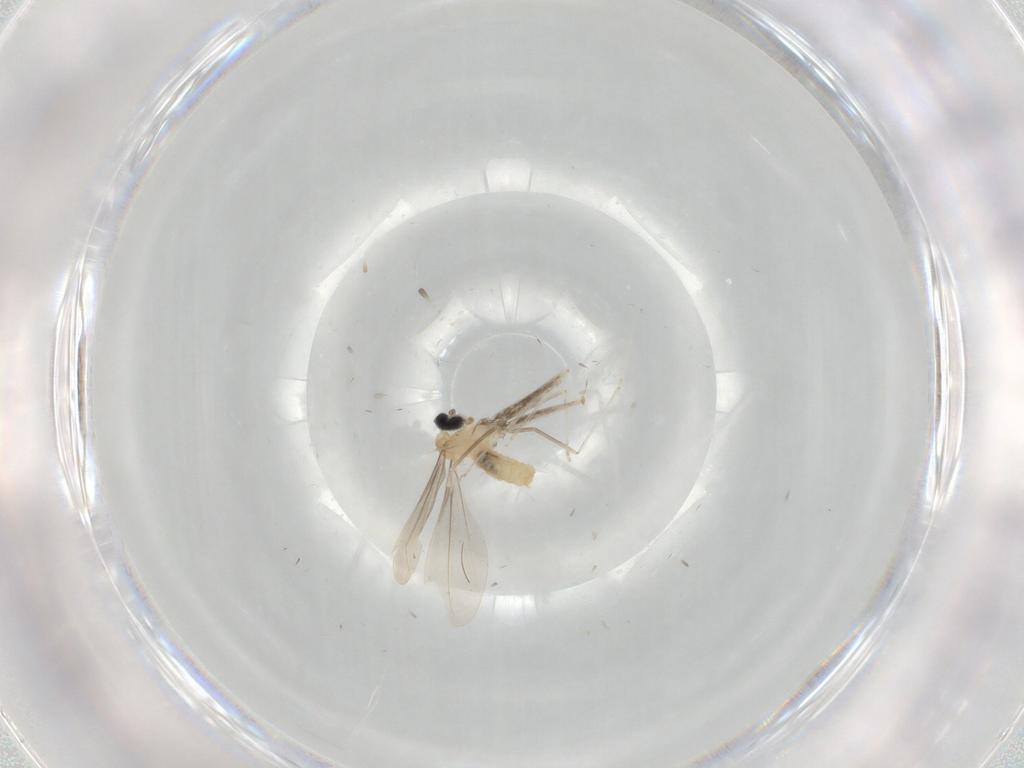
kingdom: Animalia
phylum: Arthropoda
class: Insecta
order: Diptera
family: Cecidomyiidae
